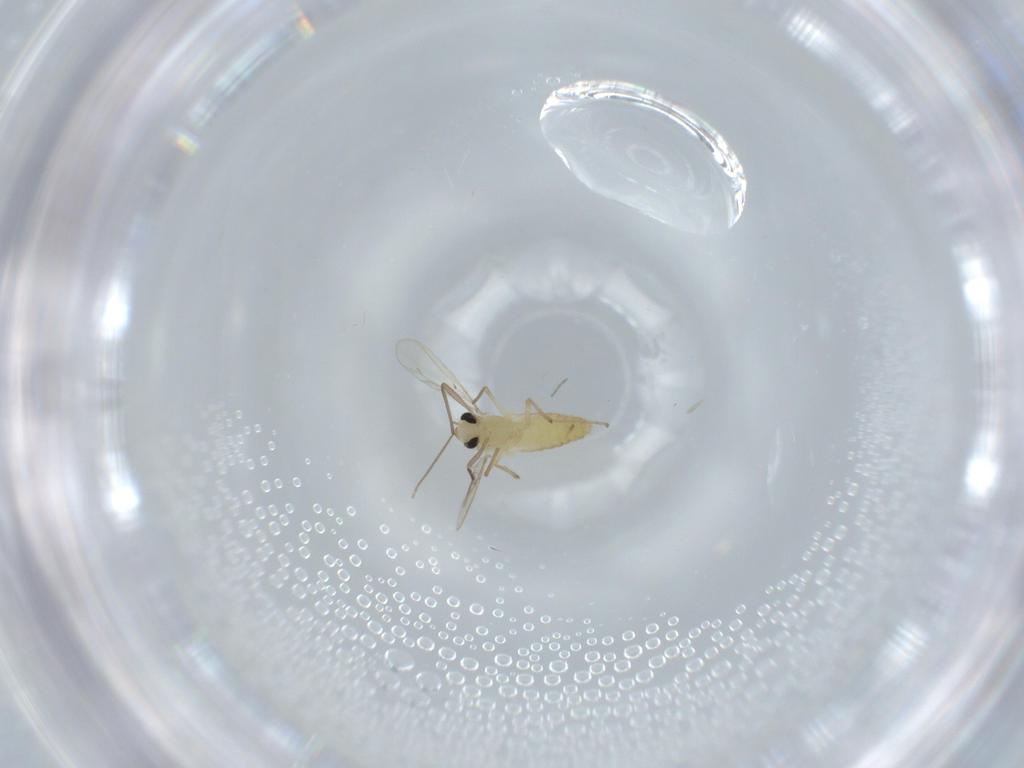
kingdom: Animalia
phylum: Arthropoda
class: Insecta
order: Diptera
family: Chironomidae
